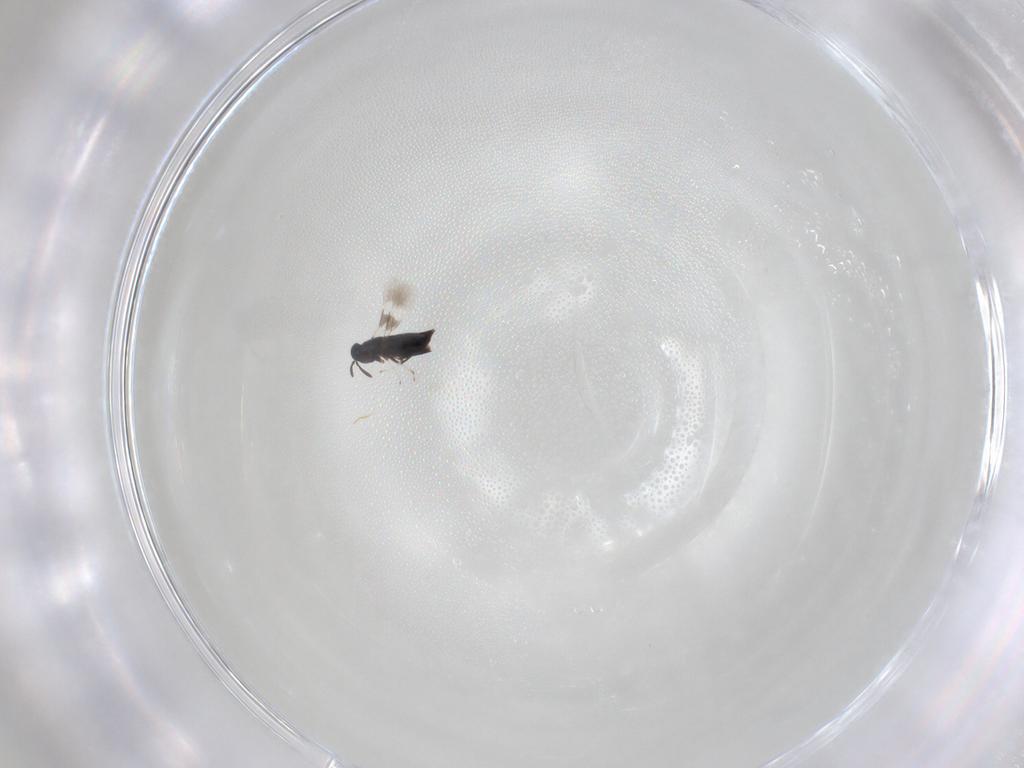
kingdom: Animalia
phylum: Arthropoda
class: Insecta
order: Hymenoptera
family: Signiphoridae
